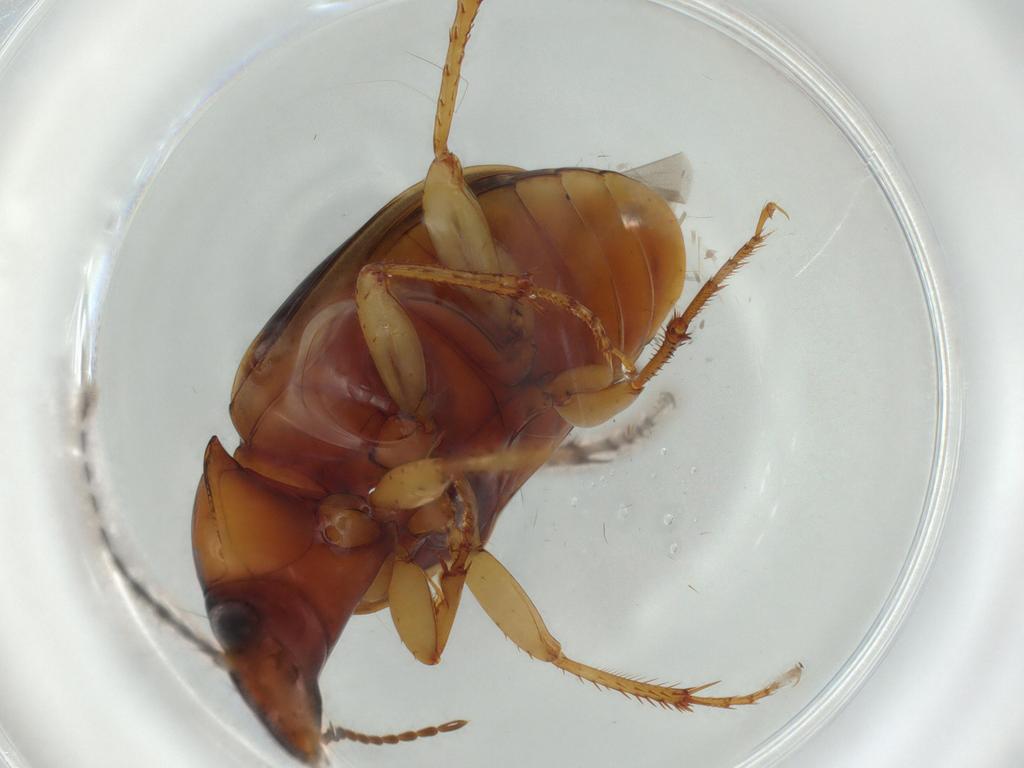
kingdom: Animalia
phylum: Arthropoda
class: Insecta
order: Coleoptera
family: Carabidae
